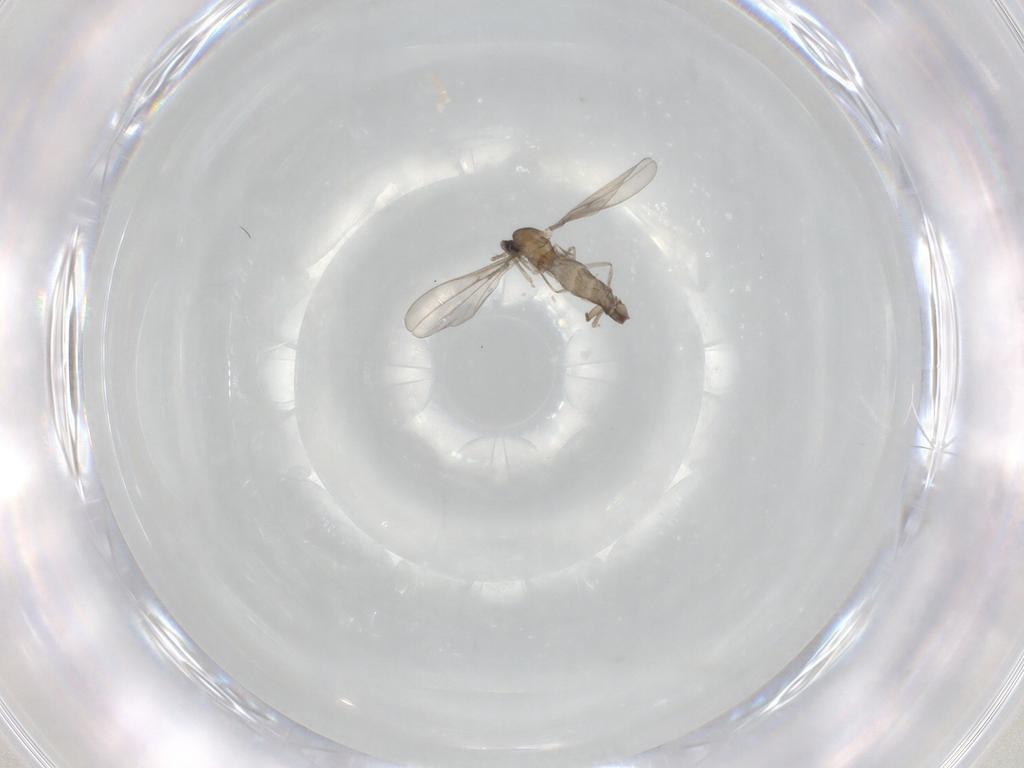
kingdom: Animalia
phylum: Arthropoda
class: Insecta
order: Diptera
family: Cecidomyiidae
